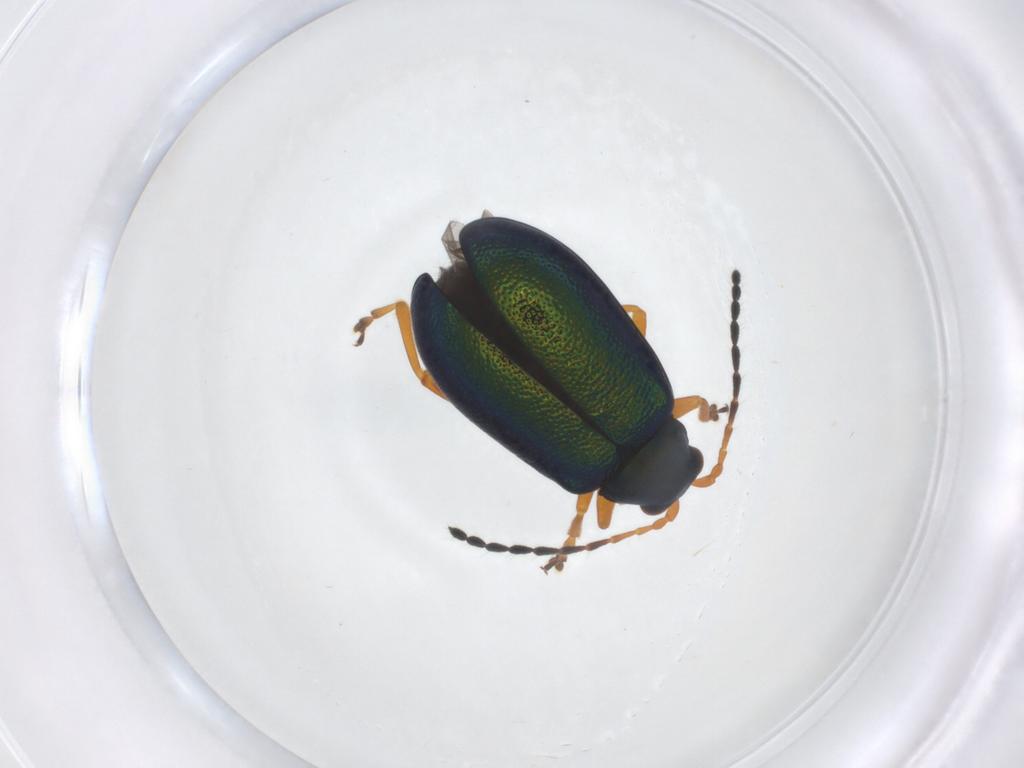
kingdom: Animalia
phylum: Arthropoda
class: Insecta
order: Coleoptera
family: Chrysomelidae
